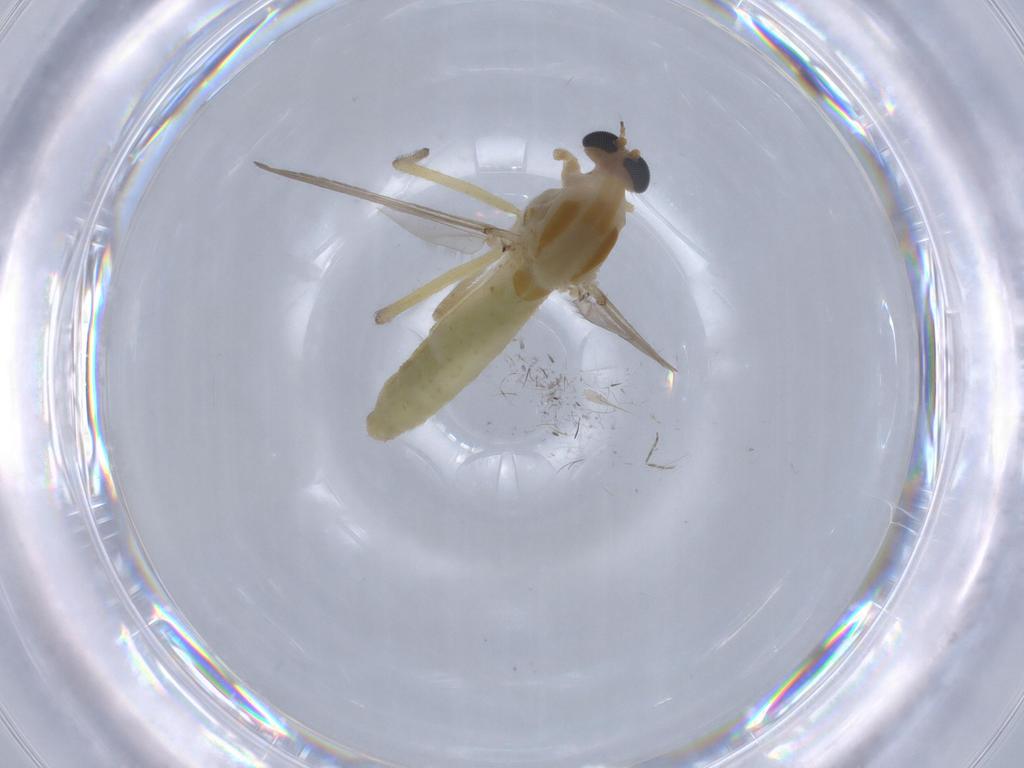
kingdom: Animalia
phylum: Arthropoda
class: Insecta
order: Diptera
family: Chironomidae
